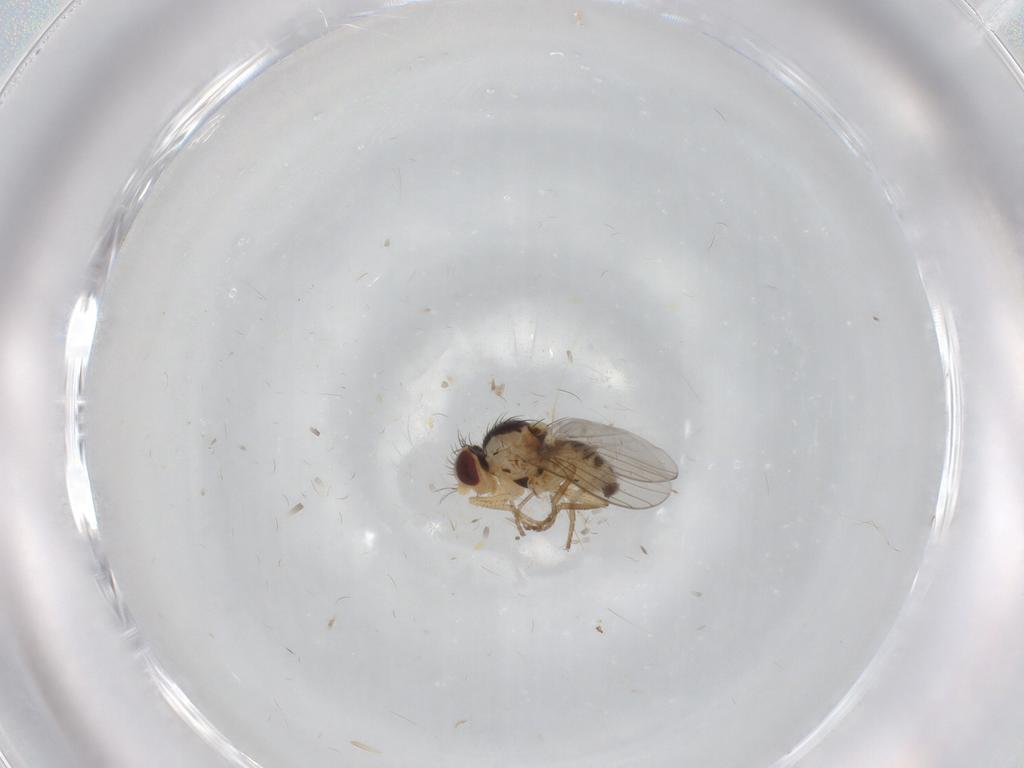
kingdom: Animalia
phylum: Arthropoda
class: Insecta
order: Diptera
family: Agromyzidae
